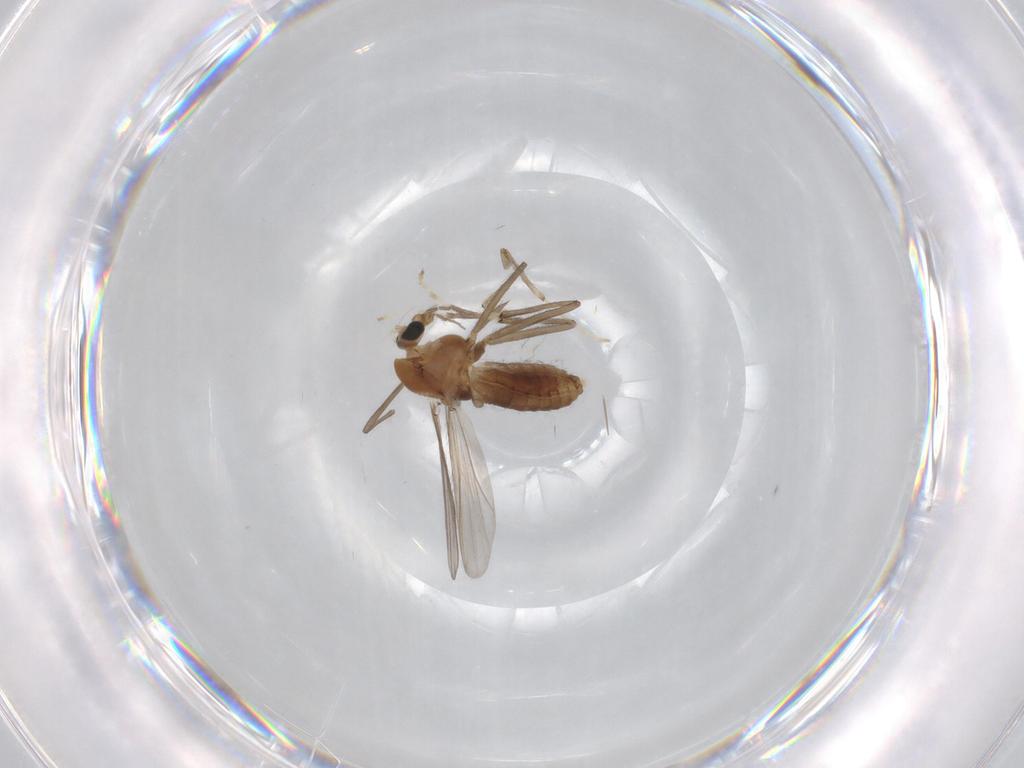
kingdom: Animalia
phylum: Arthropoda
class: Insecta
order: Diptera
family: Chironomidae
